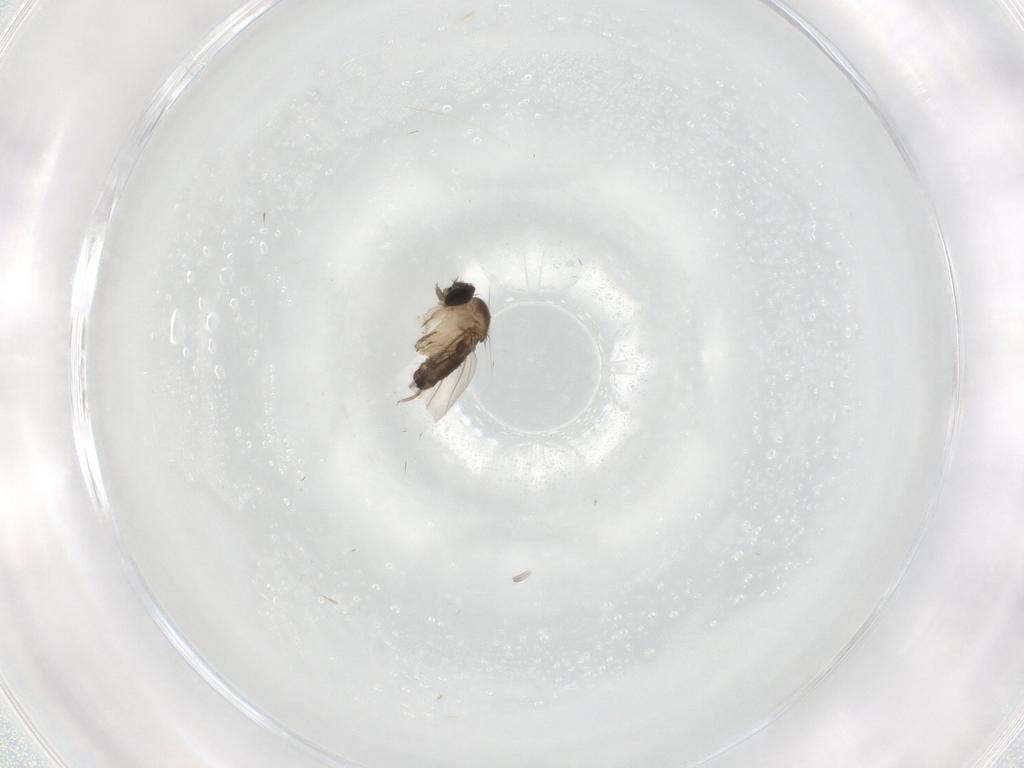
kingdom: Animalia
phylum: Arthropoda
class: Insecta
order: Diptera
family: Phoridae
